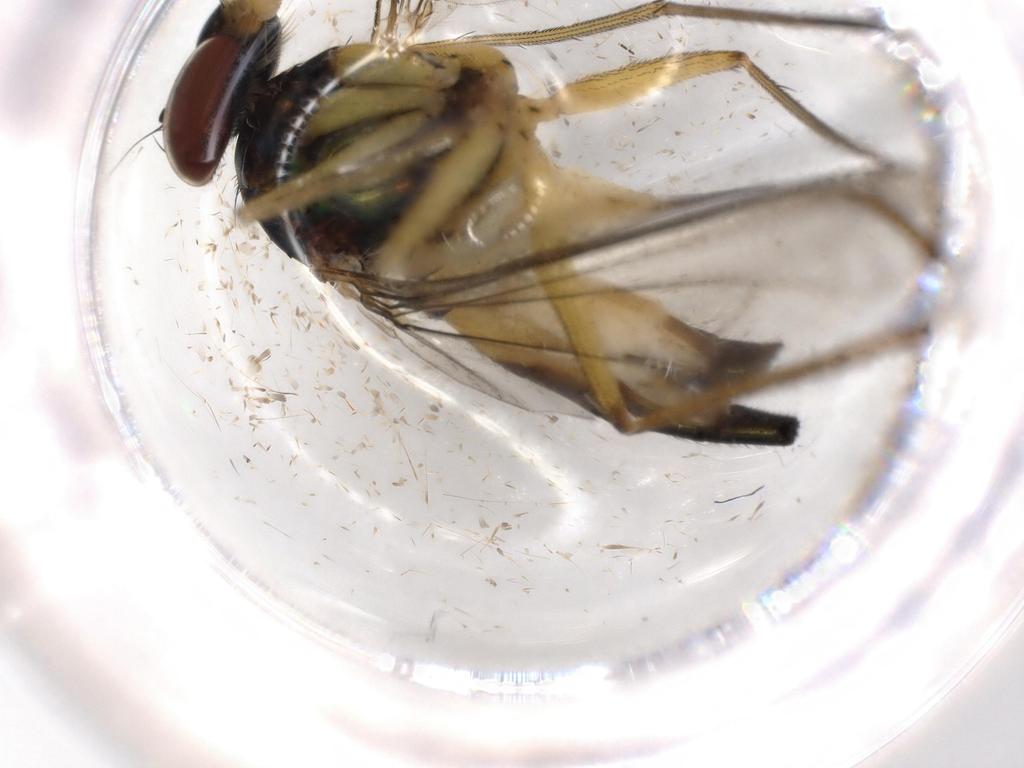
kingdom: Animalia
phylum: Arthropoda
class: Insecta
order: Diptera
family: Dolichopodidae
